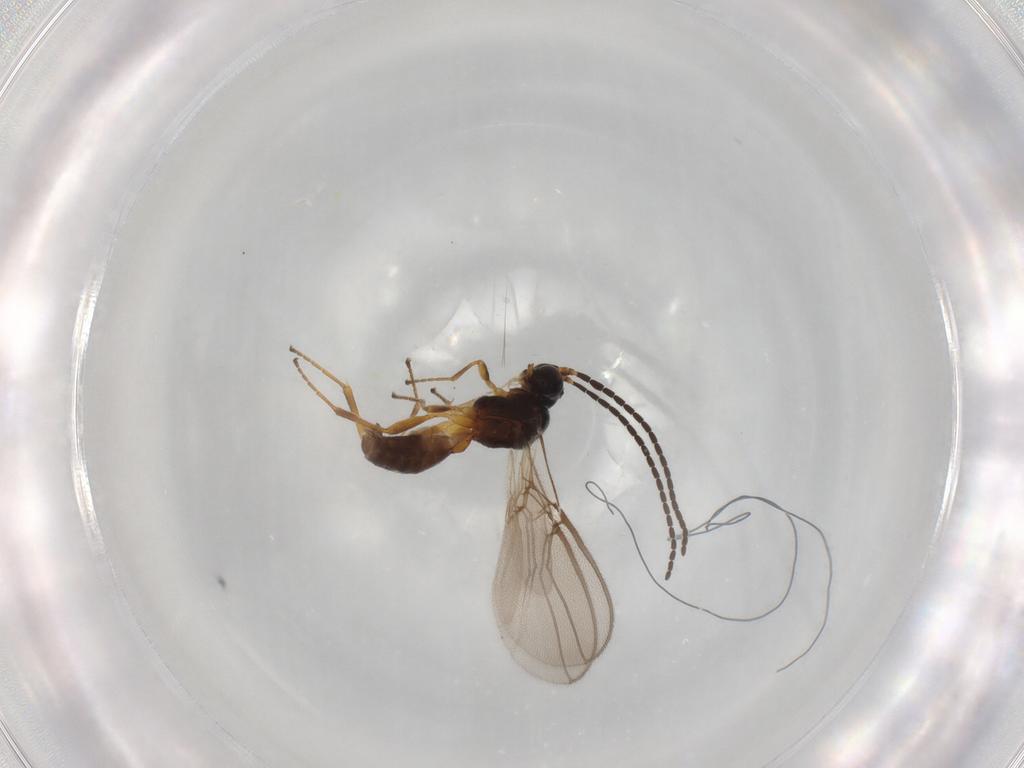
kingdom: Animalia
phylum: Arthropoda
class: Insecta
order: Hymenoptera
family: Braconidae
